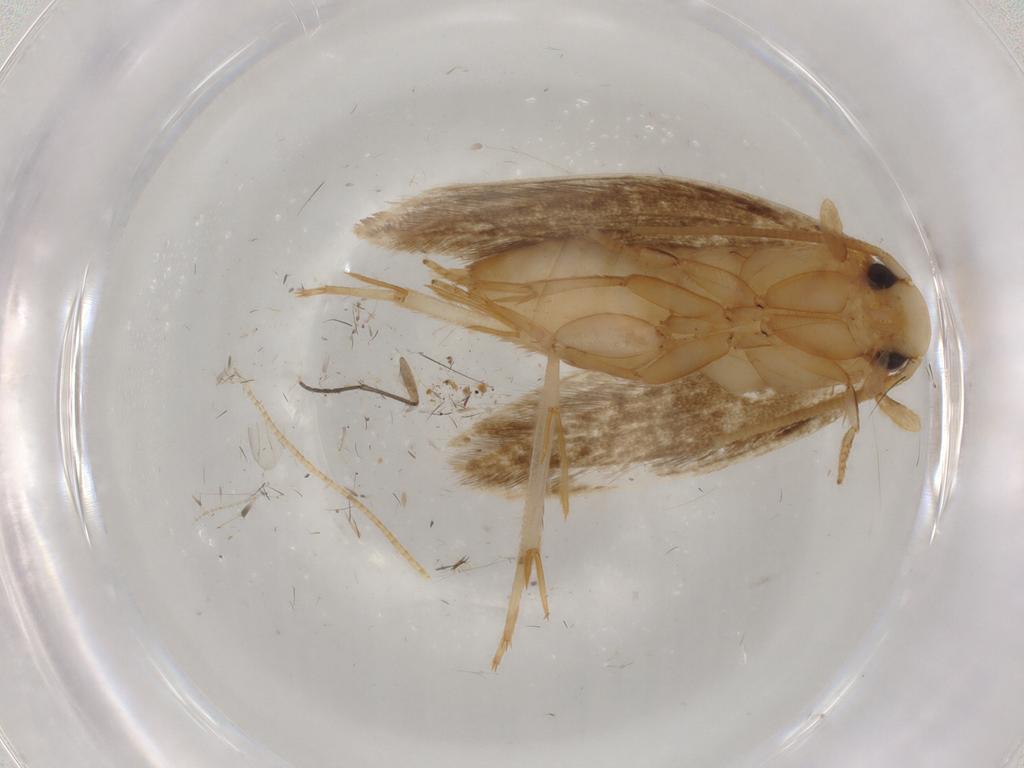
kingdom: Animalia
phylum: Arthropoda
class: Insecta
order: Lepidoptera
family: Tineidae
